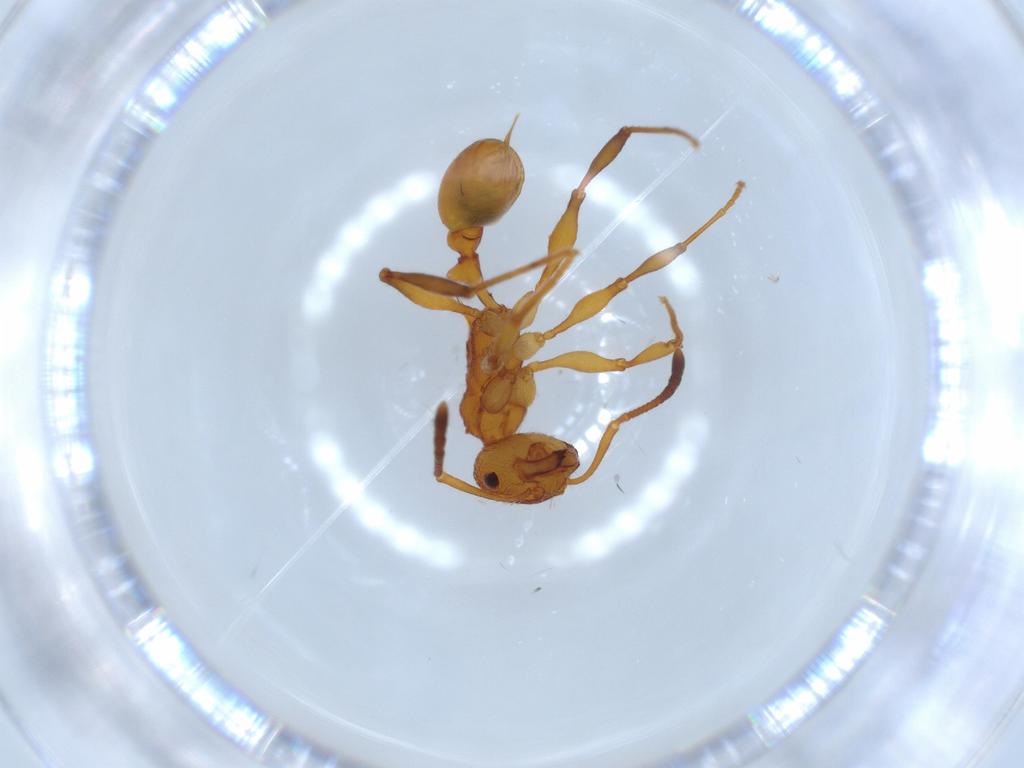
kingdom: Animalia
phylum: Arthropoda
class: Insecta
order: Hymenoptera
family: Formicidae
